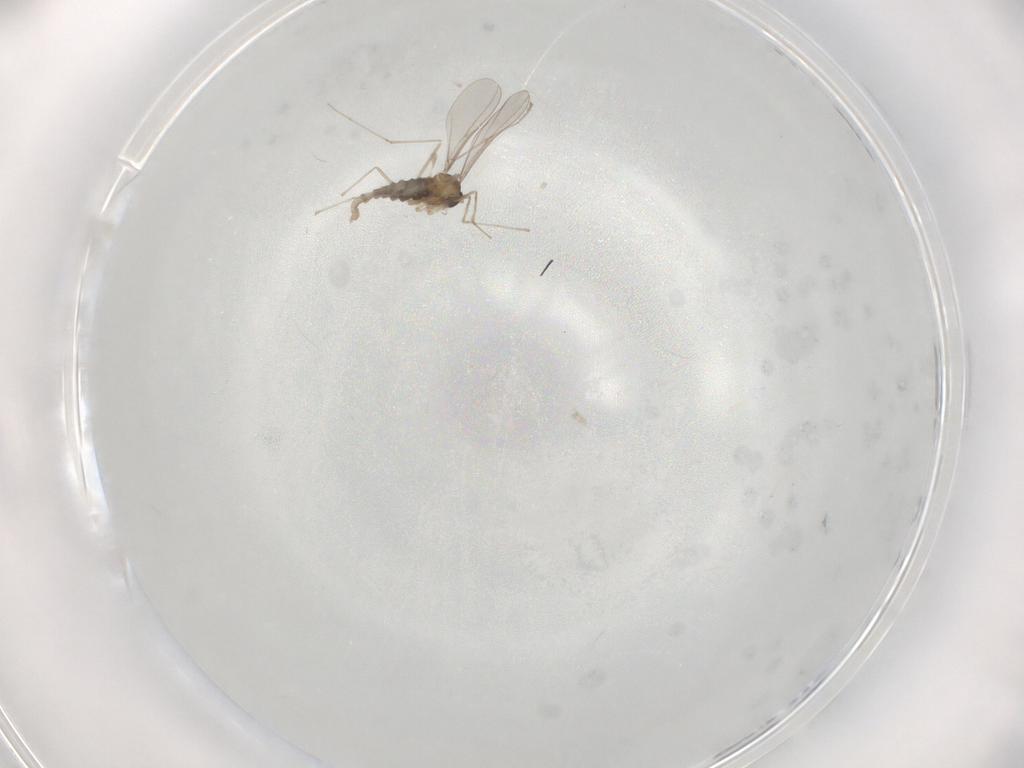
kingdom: Animalia
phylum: Arthropoda
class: Insecta
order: Diptera
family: Cecidomyiidae
